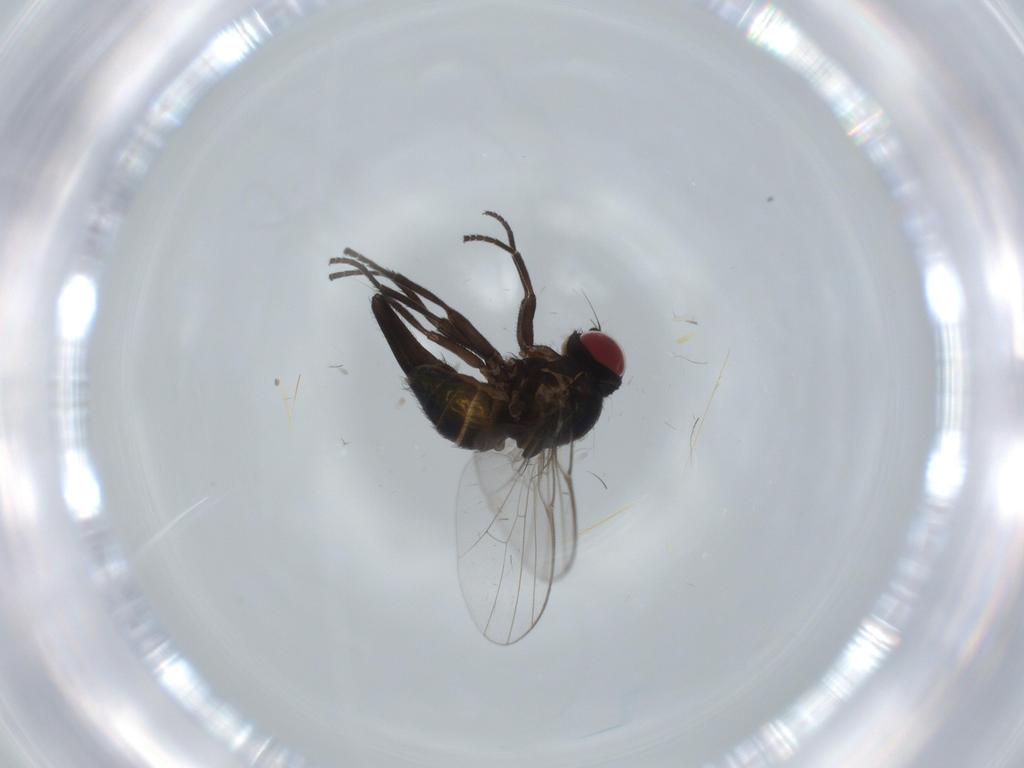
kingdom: Animalia
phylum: Arthropoda
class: Insecta
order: Diptera
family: Agromyzidae
